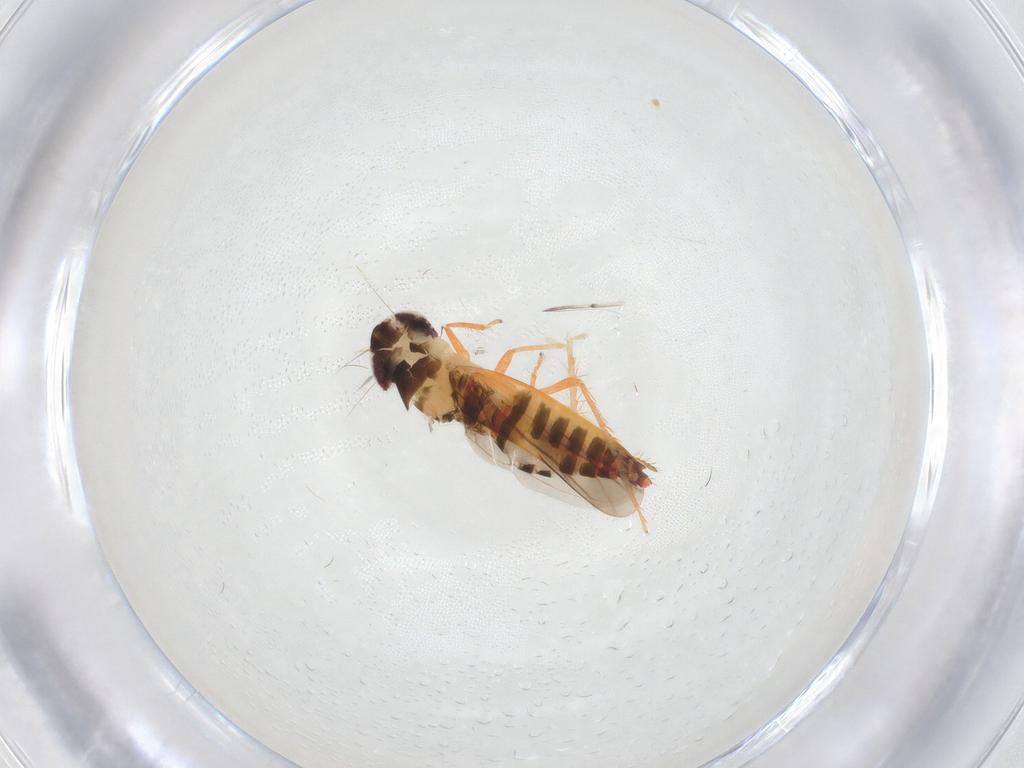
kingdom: Animalia
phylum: Arthropoda
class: Insecta
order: Hemiptera
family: Cicadellidae
